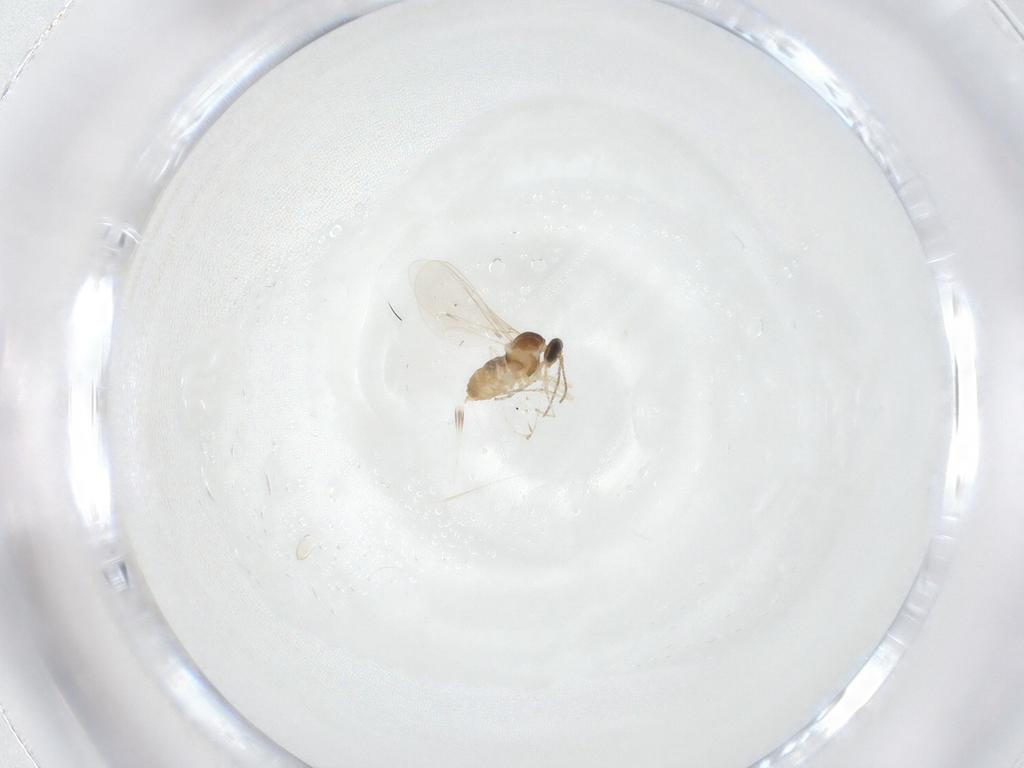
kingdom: Animalia
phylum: Arthropoda
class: Insecta
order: Diptera
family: Cecidomyiidae
